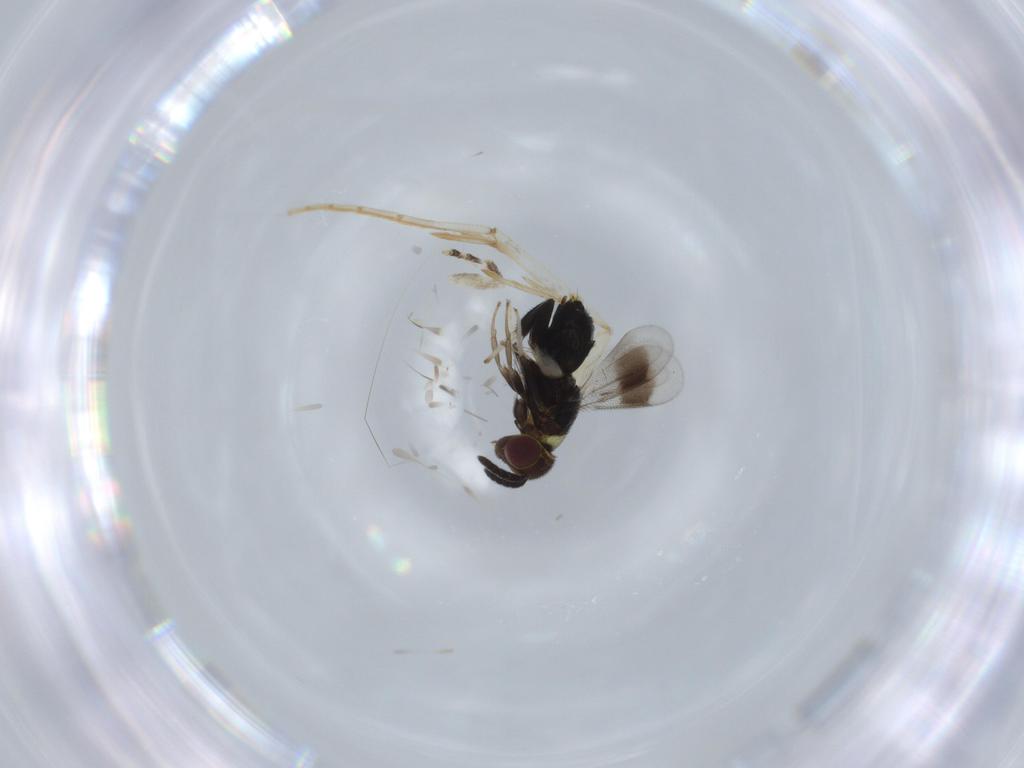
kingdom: Animalia
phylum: Arthropoda
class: Insecta
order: Hymenoptera
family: Aphelinidae
